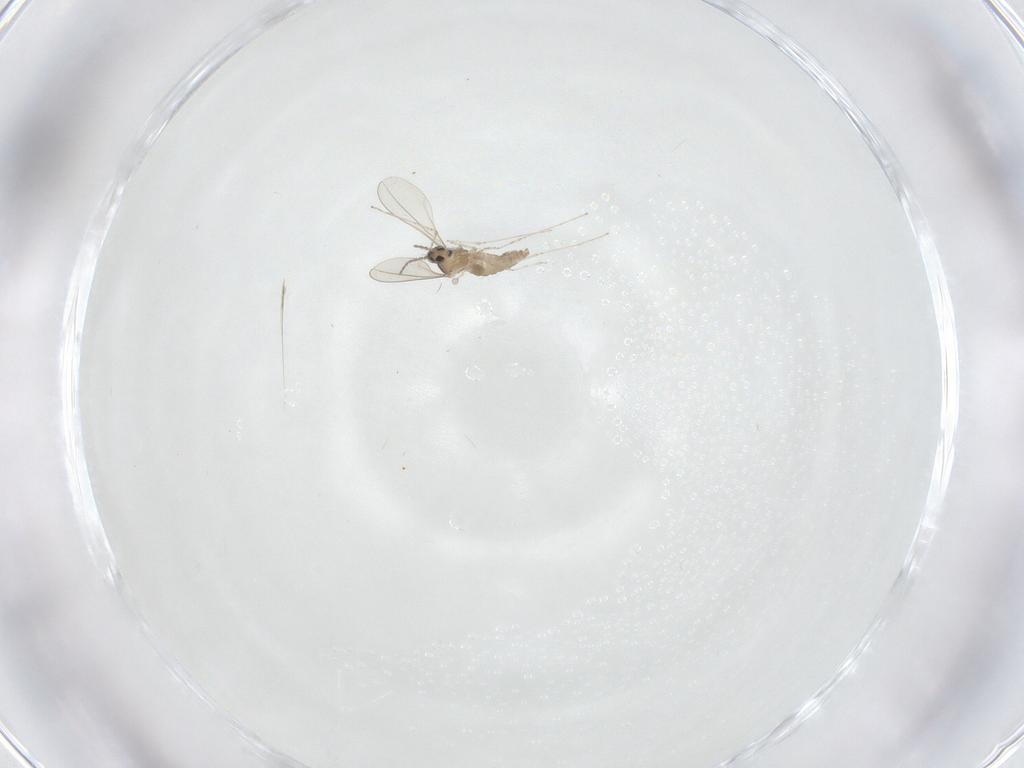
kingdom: Animalia
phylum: Arthropoda
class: Insecta
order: Diptera
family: Cecidomyiidae
